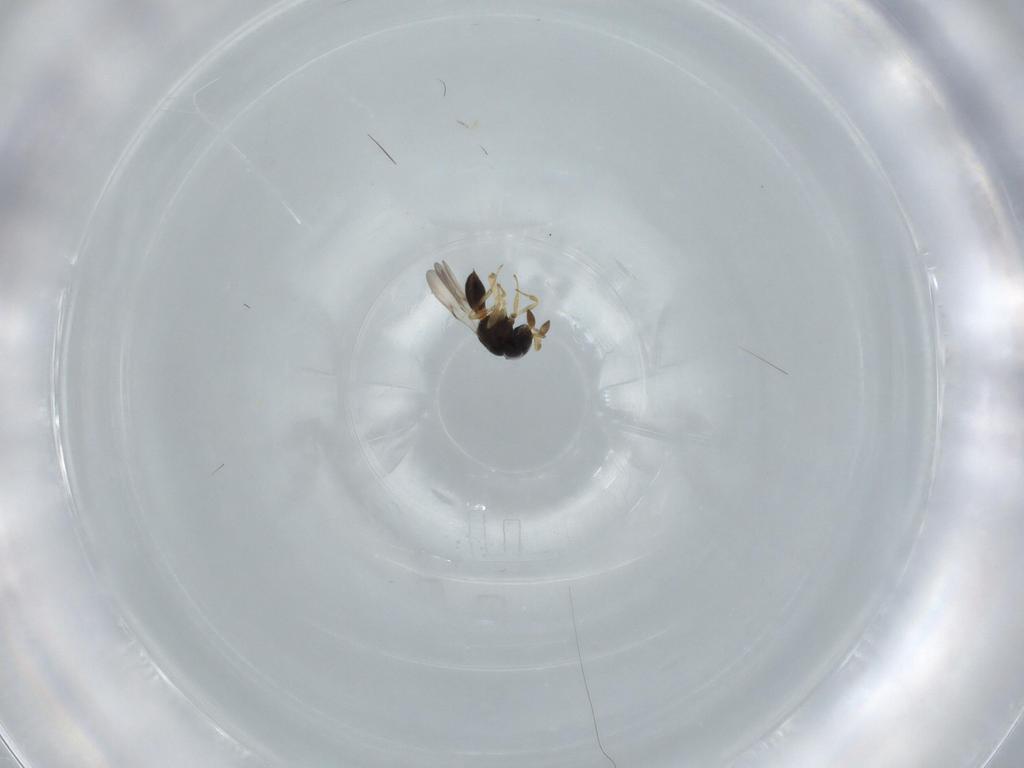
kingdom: Animalia
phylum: Arthropoda
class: Insecta
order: Hymenoptera
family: Scelionidae
